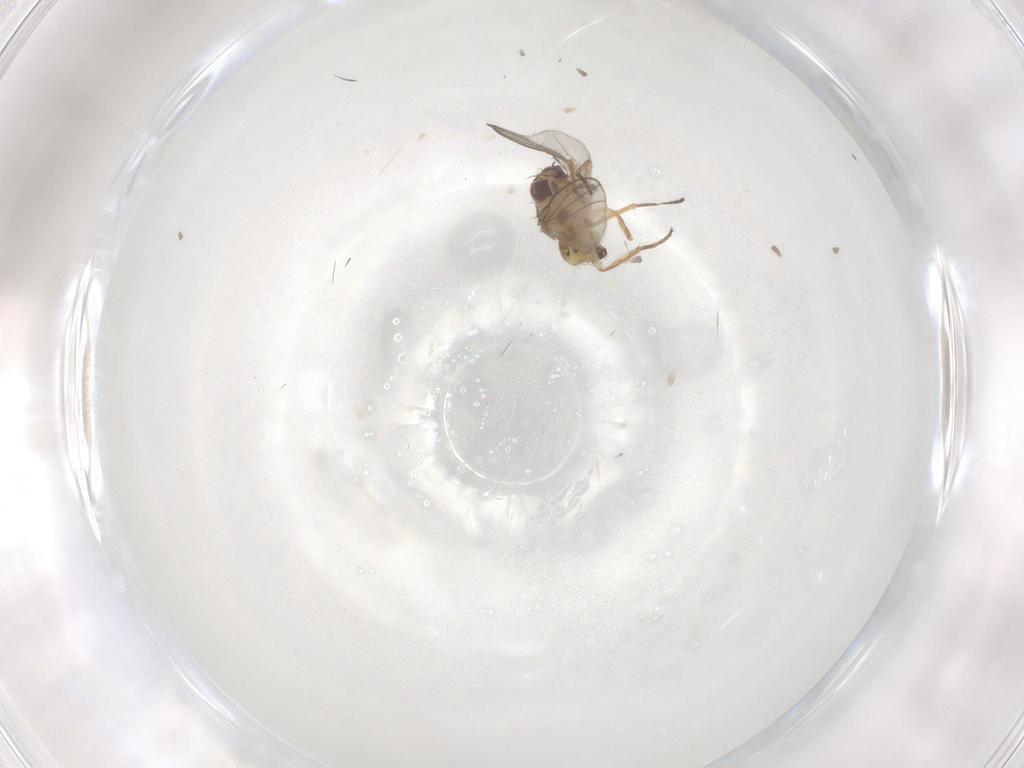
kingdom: Animalia
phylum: Arthropoda
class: Insecta
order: Diptera
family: Agromyzidae
